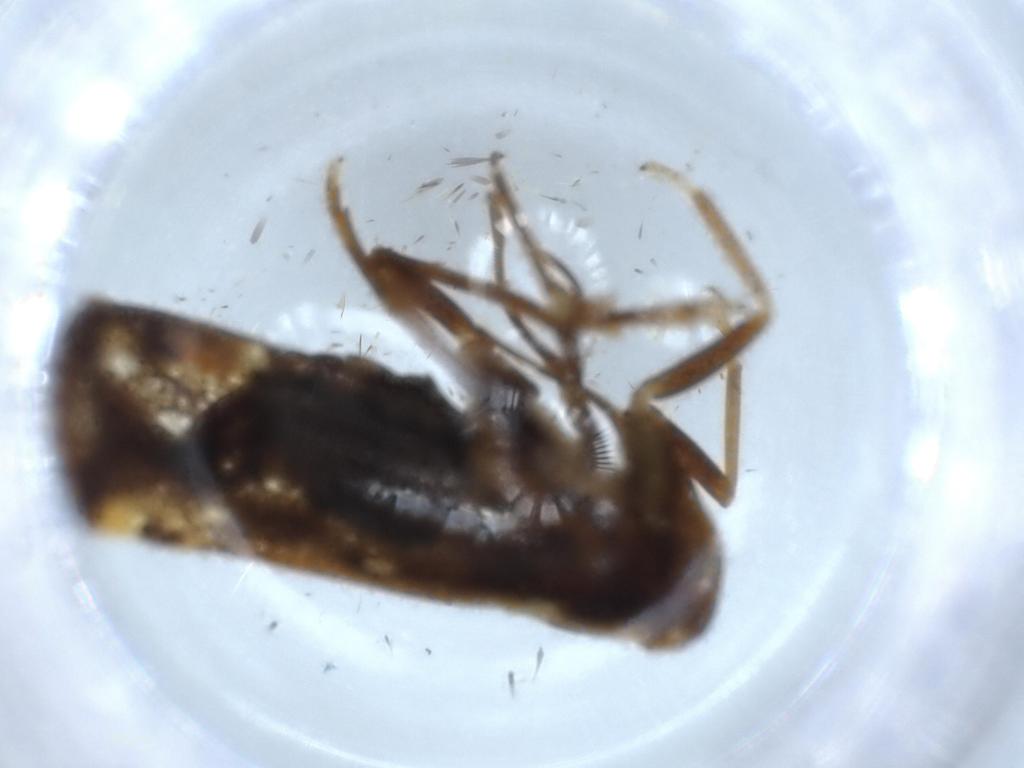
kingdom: Animalia
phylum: Arthropoda
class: Insecta
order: Hemiptera
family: Cixiidae
